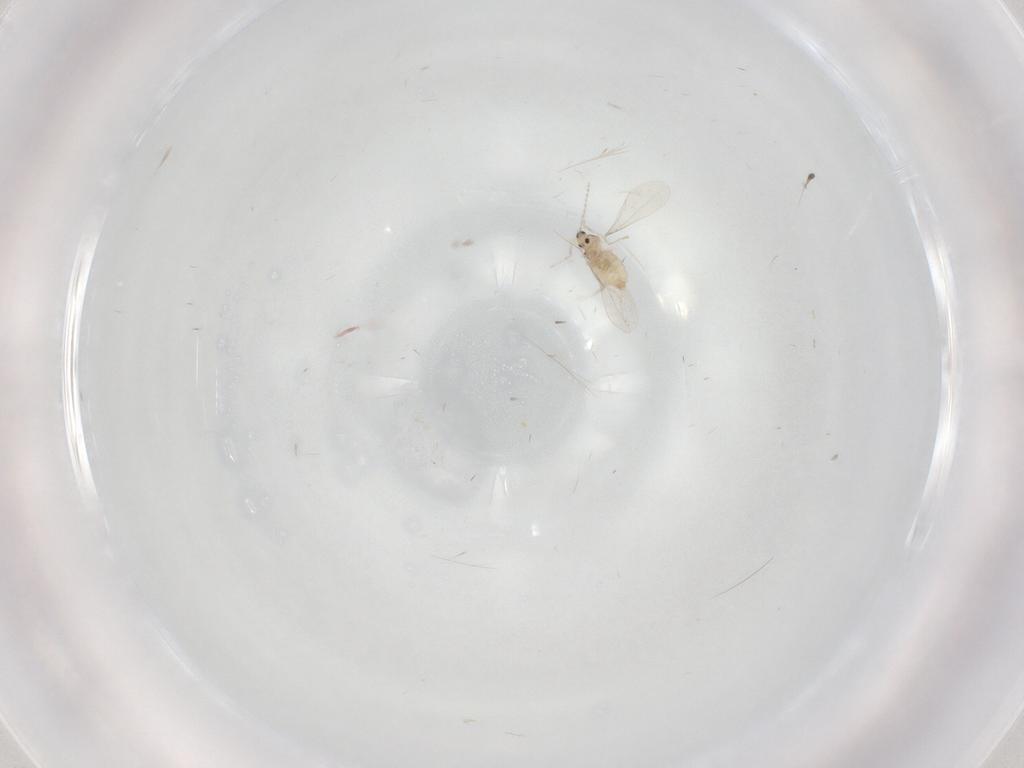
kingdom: Animalia
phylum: Arthropoda
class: Insecta
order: Diptera
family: Cecidomyiidae
